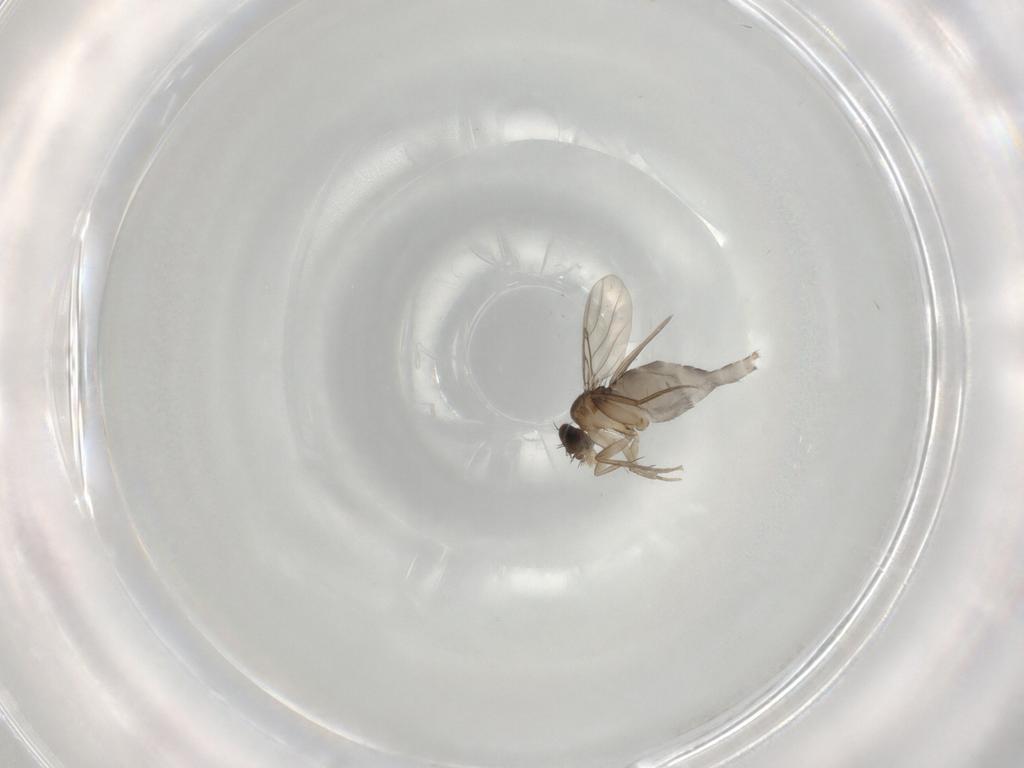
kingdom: Animalia
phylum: Arthropoda
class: Insecta
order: Diptera
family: Phoridae
